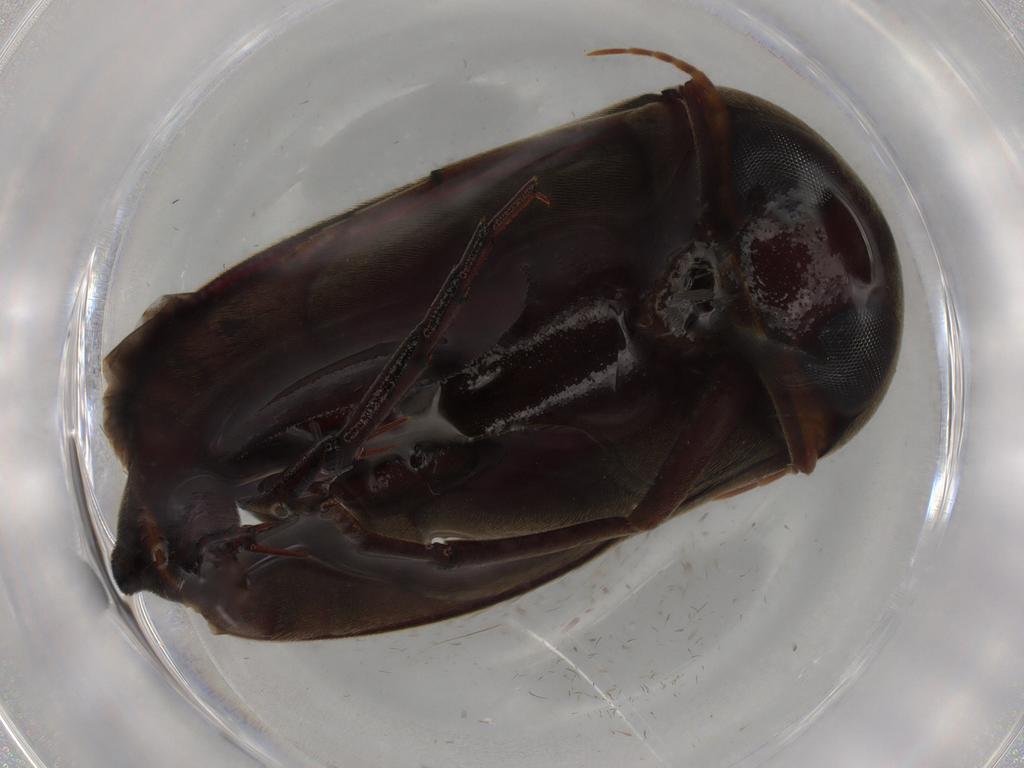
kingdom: Animalia
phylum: Arthropoda
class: Insecta
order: Coleoptera
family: Mordellidae
